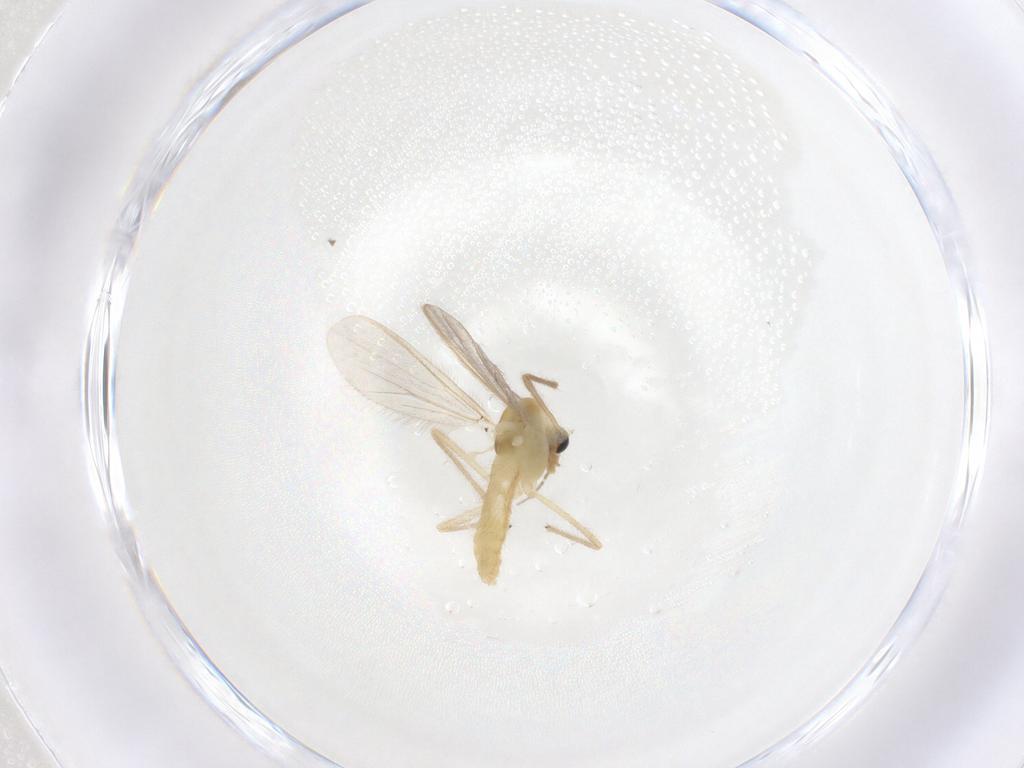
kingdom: Animalia
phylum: Arthropoda
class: Insecta
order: Diptera
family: Chironomidae
